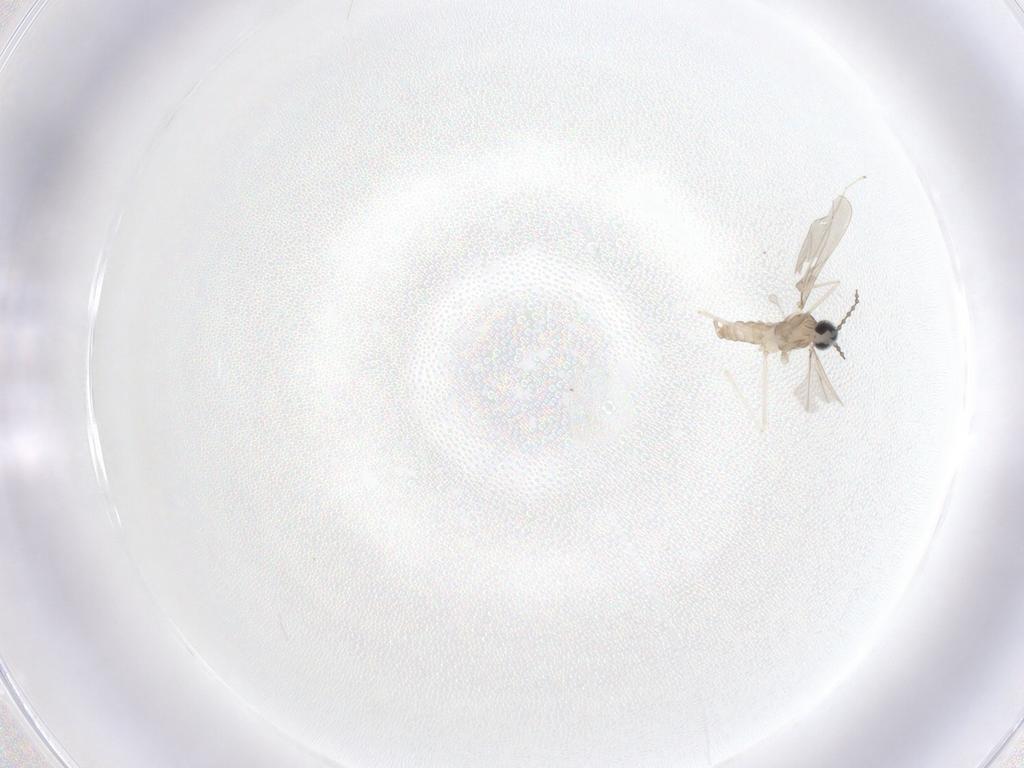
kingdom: Animalia
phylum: Arthropoda
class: Insecta
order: Diptera
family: Cecidomyiidae
